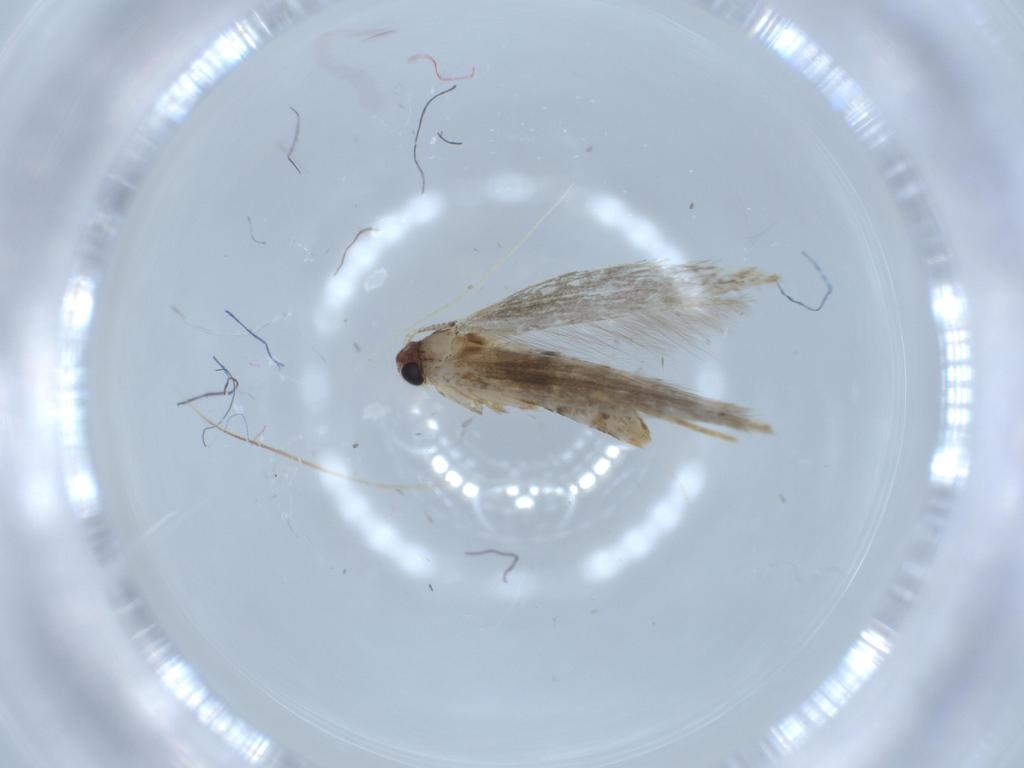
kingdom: Animalia
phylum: Arthropoda
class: Insecta
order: Lepidoptera
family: Tineidae
